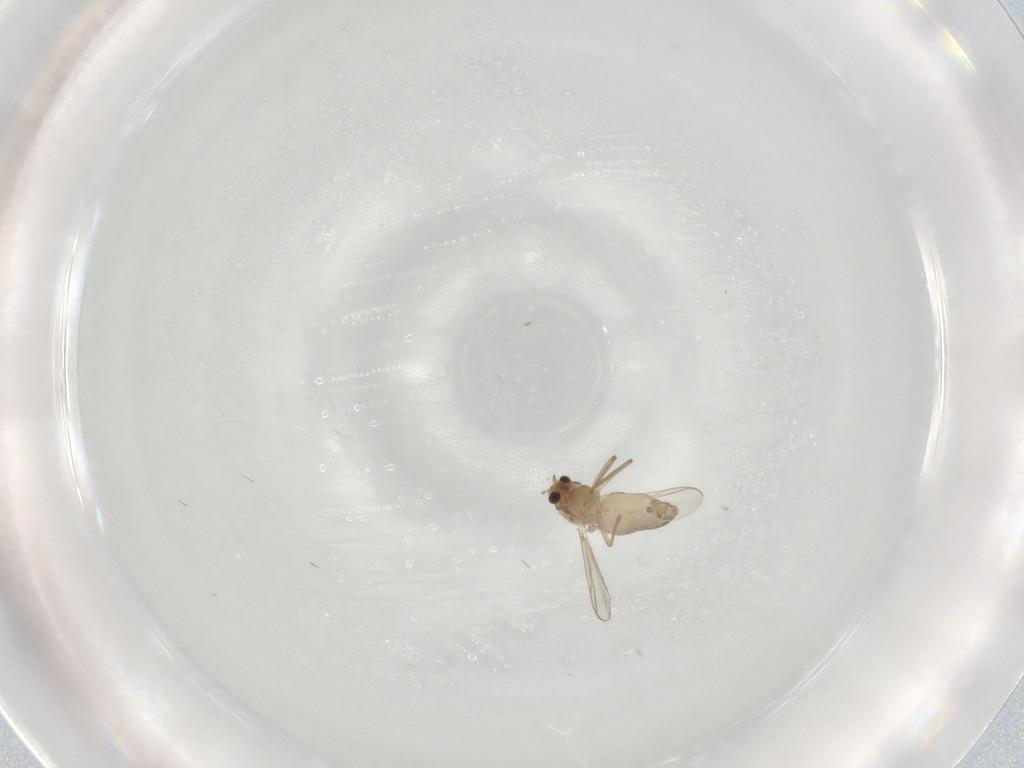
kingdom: Animalia
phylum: Arthropoda
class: Insecta
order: Diptera
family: Chironomidae
